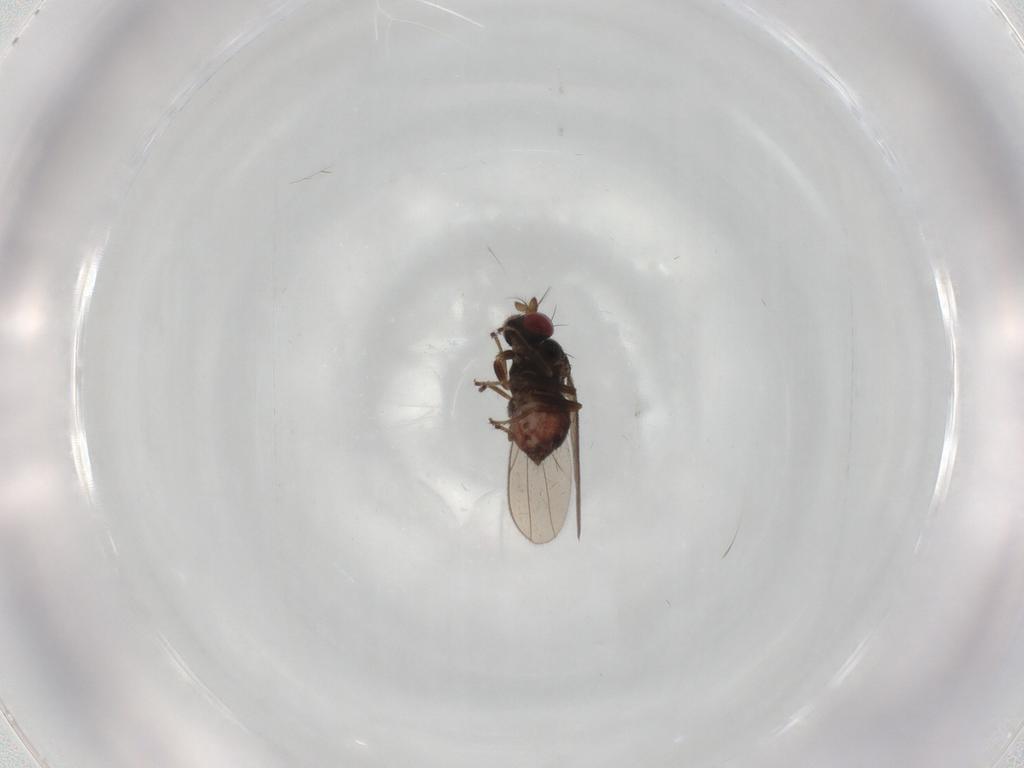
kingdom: Animalia
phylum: Arthropoda
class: Insecta
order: Diptera
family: Ephydridae
